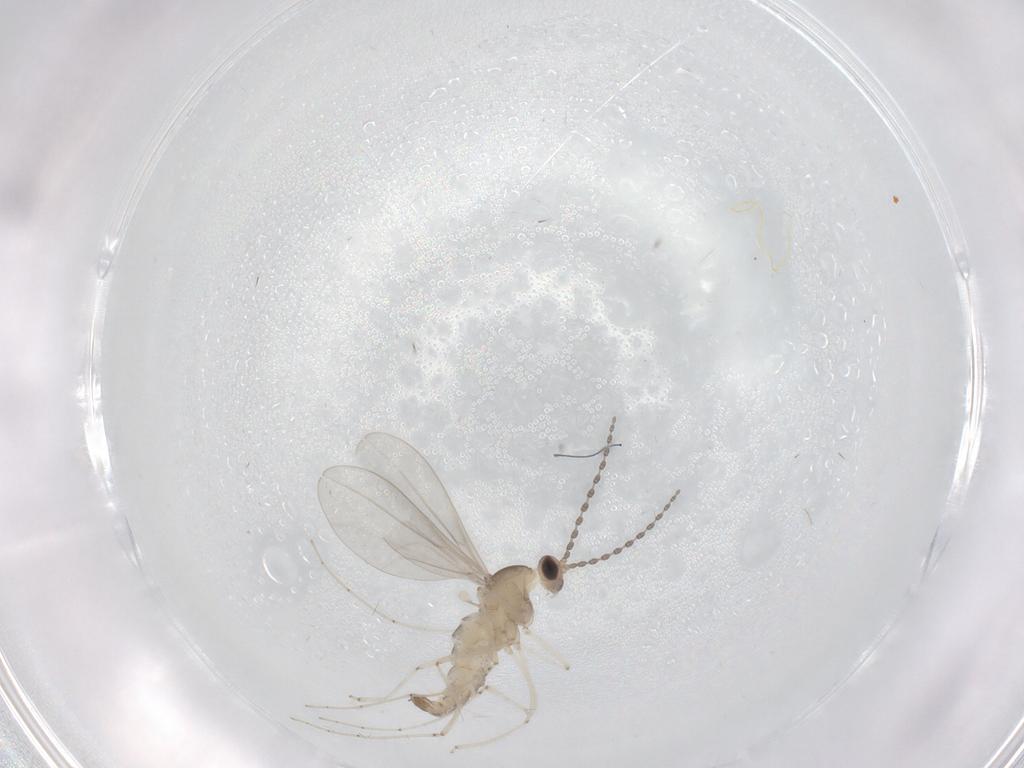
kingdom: Animalia
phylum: Arthropoda
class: Insecta
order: Diptera
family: Cecidomyiidae
